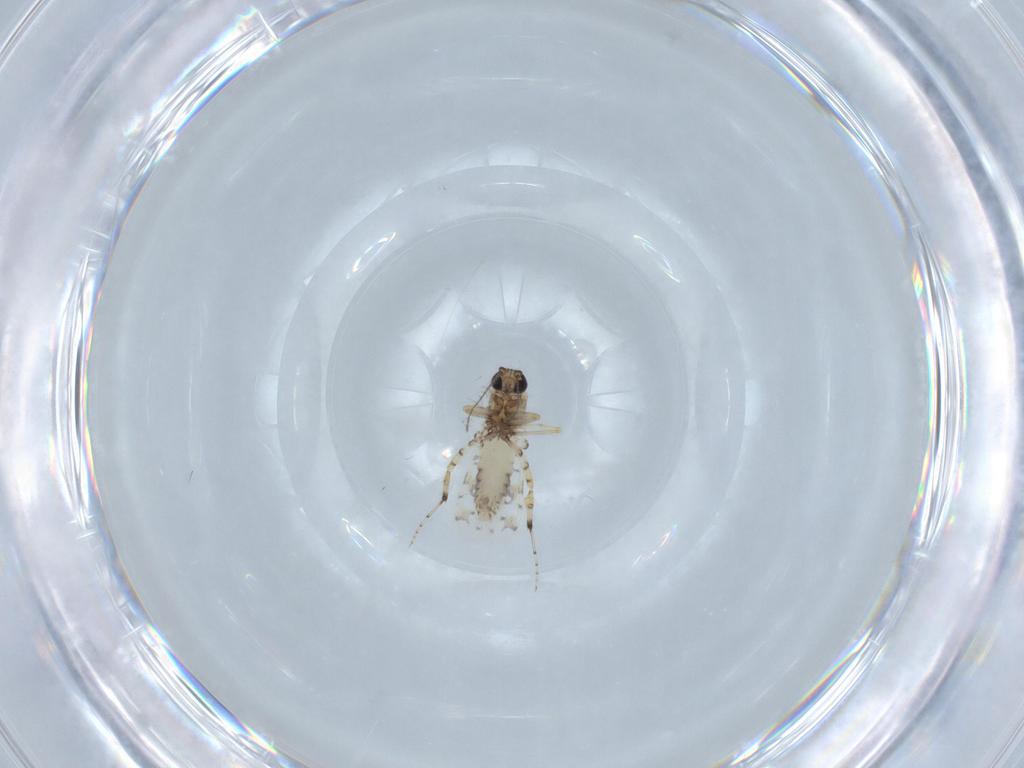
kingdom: Animalia
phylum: Arthropoda
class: Insecta
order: Diptera
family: Ceratopogonidae
